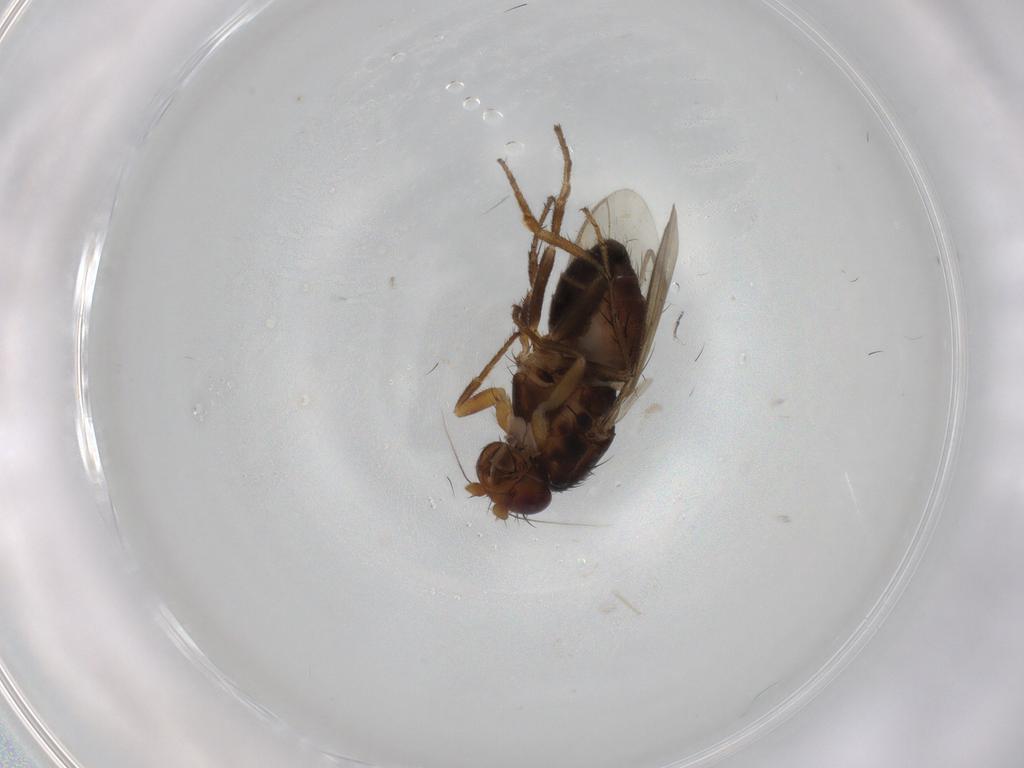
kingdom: Animalia
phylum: Arthropoda
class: Insecta
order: Diptera
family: Sphaeroceridae
